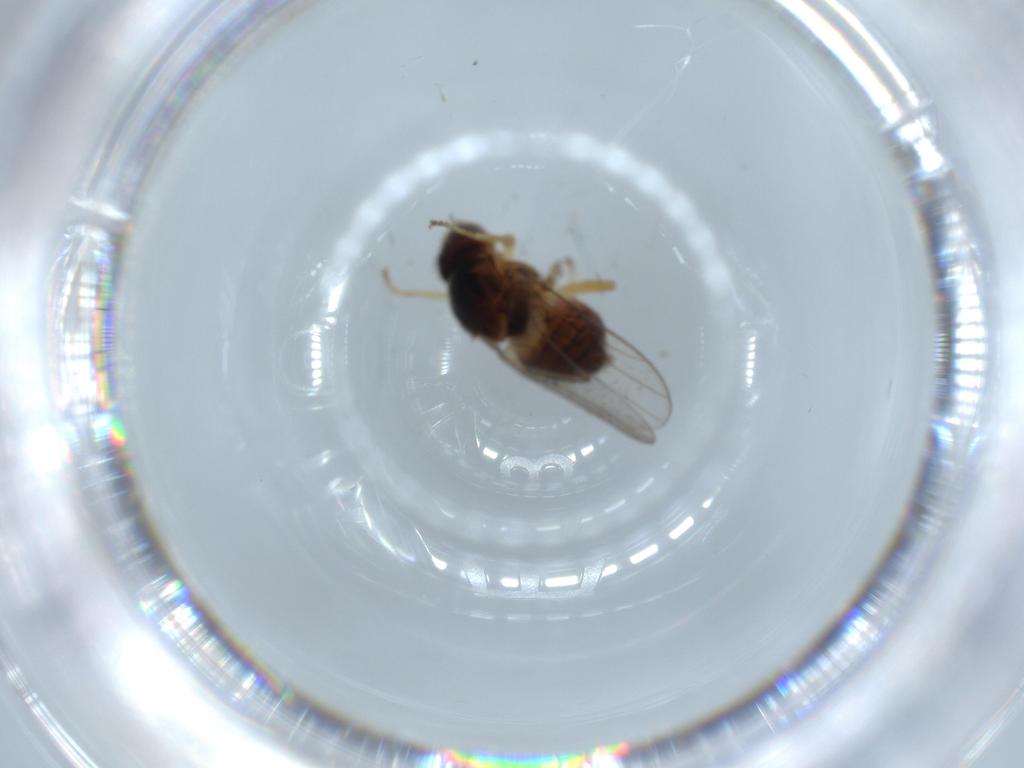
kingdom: Animalia
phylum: Arthropoda
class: Insecta
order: Diptera
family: Chloropidae
